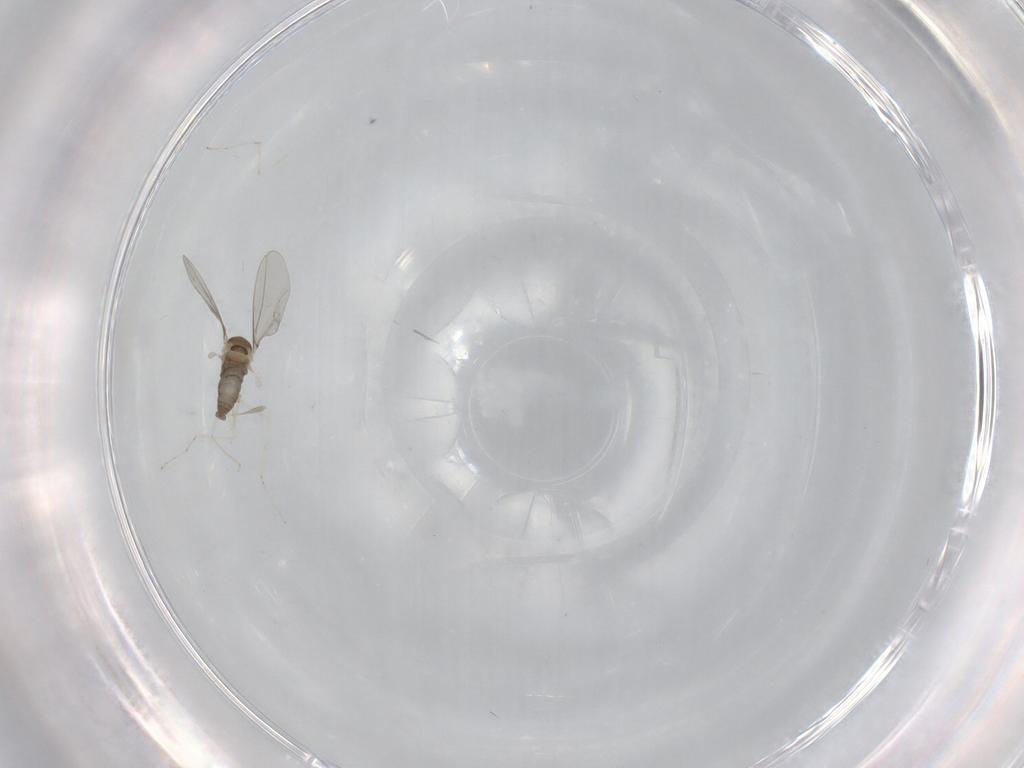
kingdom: Animalia
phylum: Arthropoda
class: Insecta
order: Diptera
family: Cecidomyiidae
